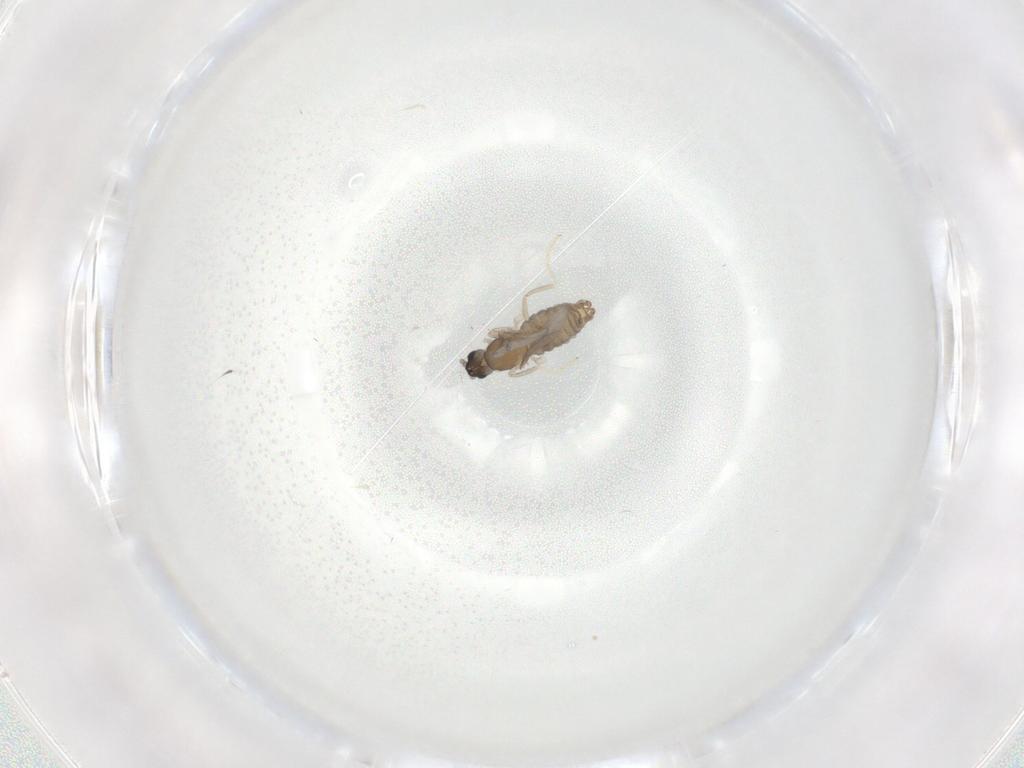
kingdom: Animalia
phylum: Arthropoda
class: Insecta
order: Diptera
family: Cecidomyiidae
